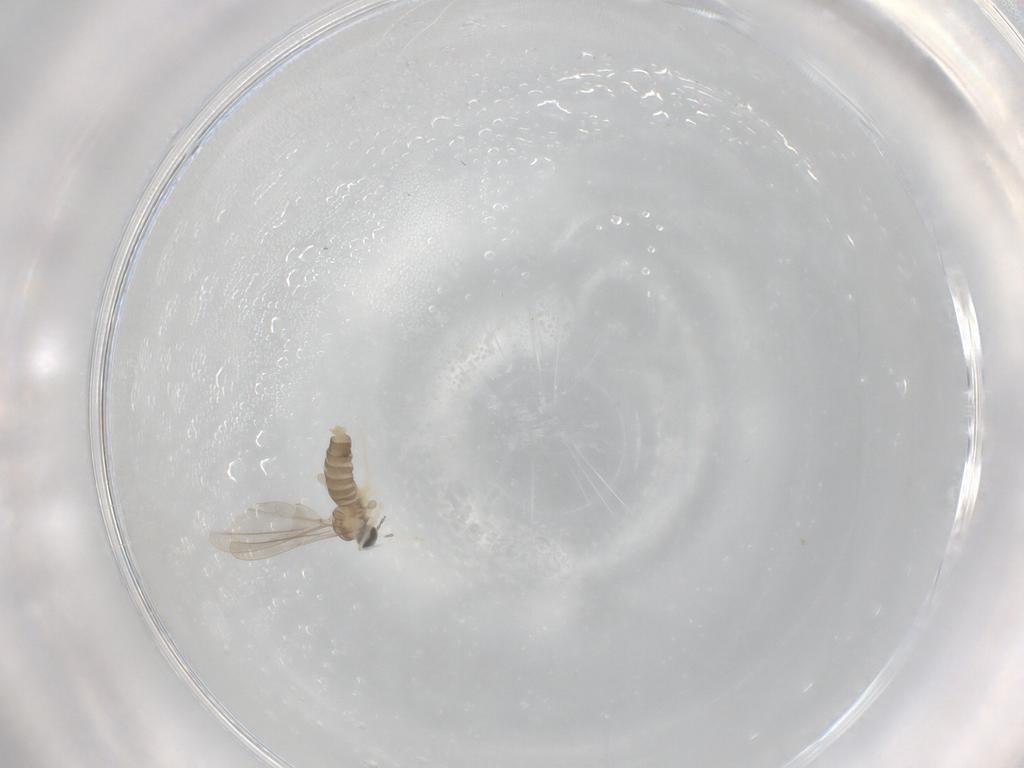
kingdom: Animalia
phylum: Arthropoda
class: Insecta
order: Diptera
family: Cecidomyiidae
